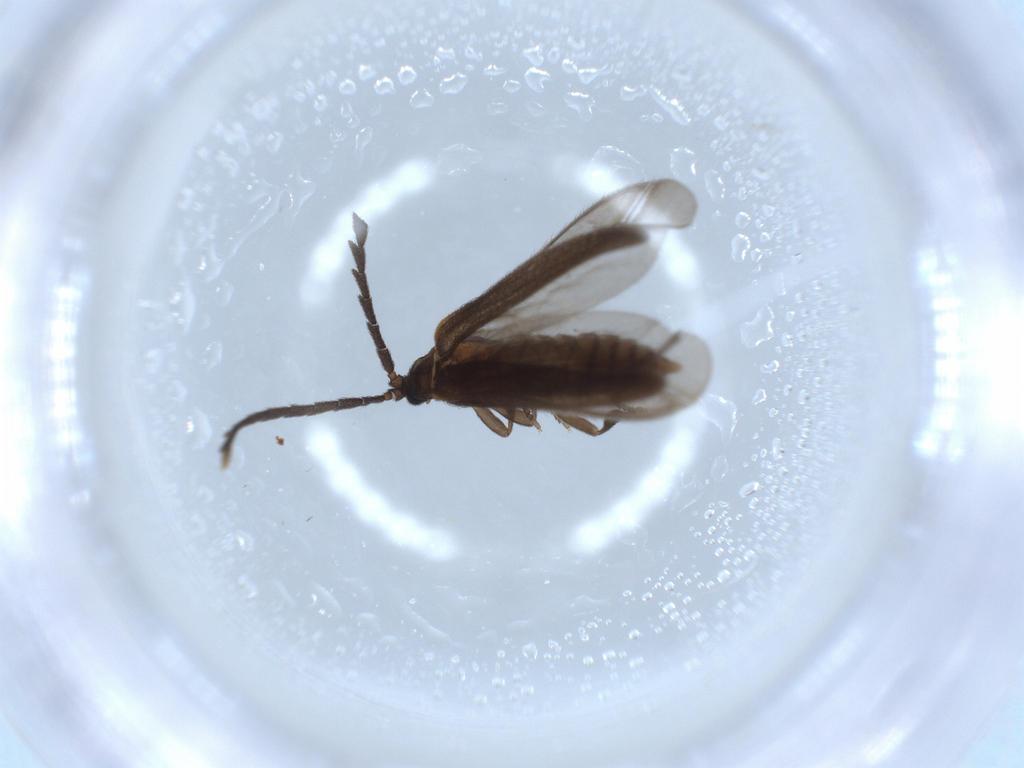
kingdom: Animalia
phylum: Arthropoda
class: Insecta
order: Coleoptera
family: Lycidae
